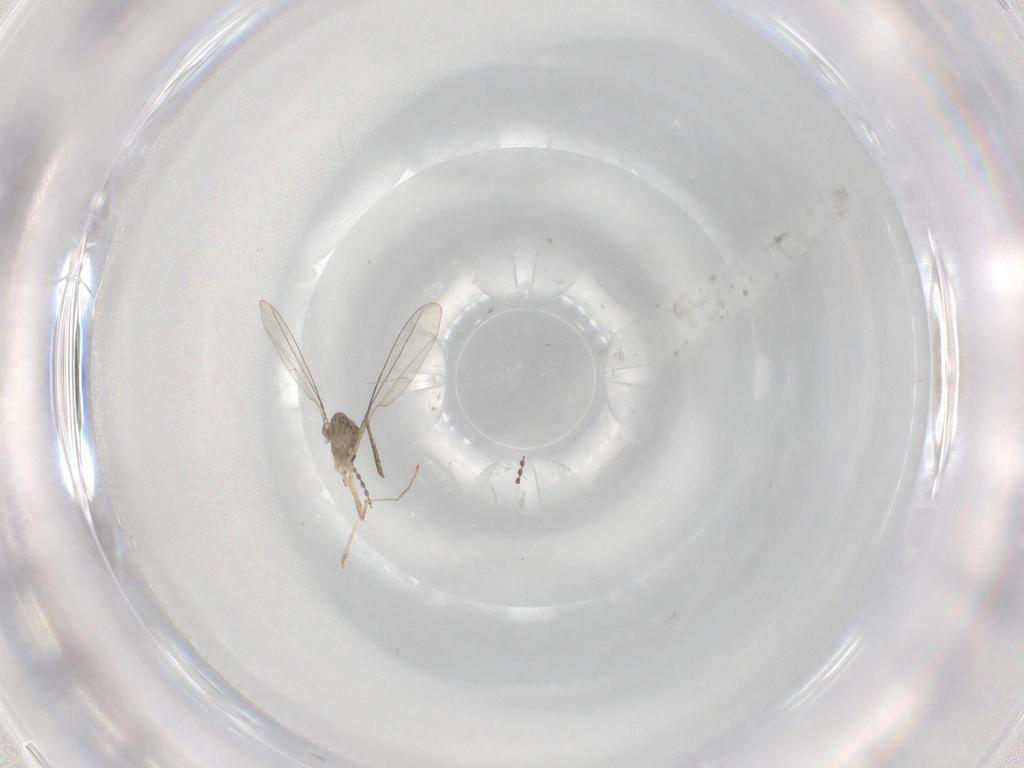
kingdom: Animalia
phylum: Arthropoda
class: Insecta
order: Diptera
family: Cecidomyiidae
